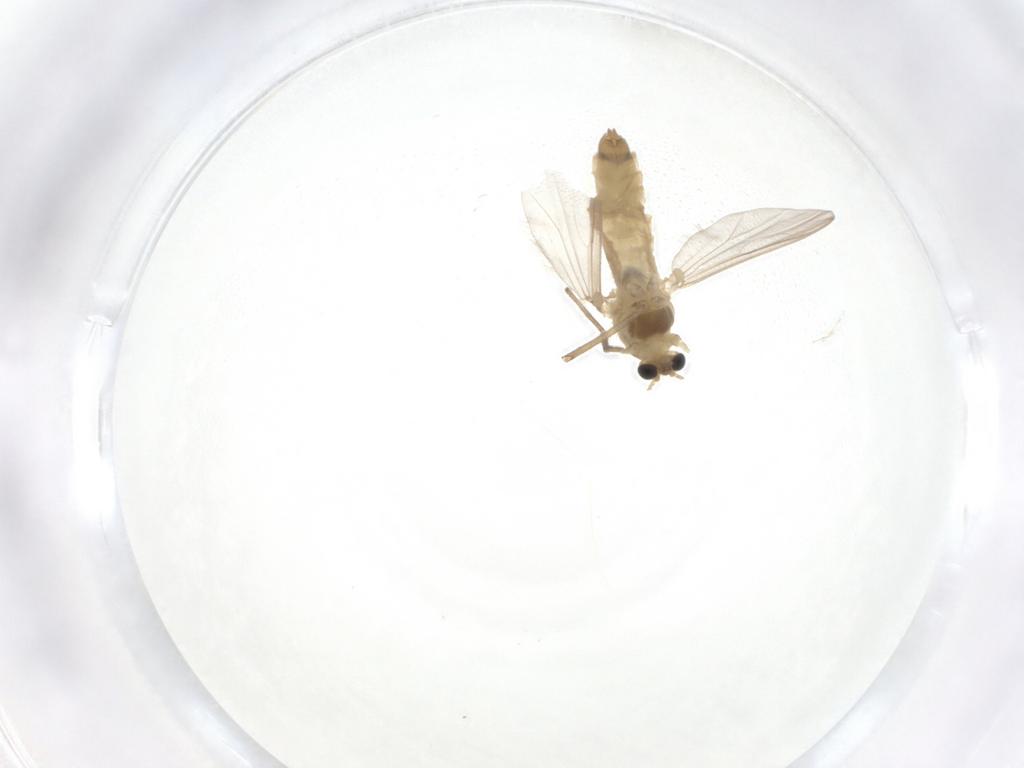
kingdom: Animalia
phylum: Arthropoda
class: Insecta
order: Diptera
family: Chironomidae
